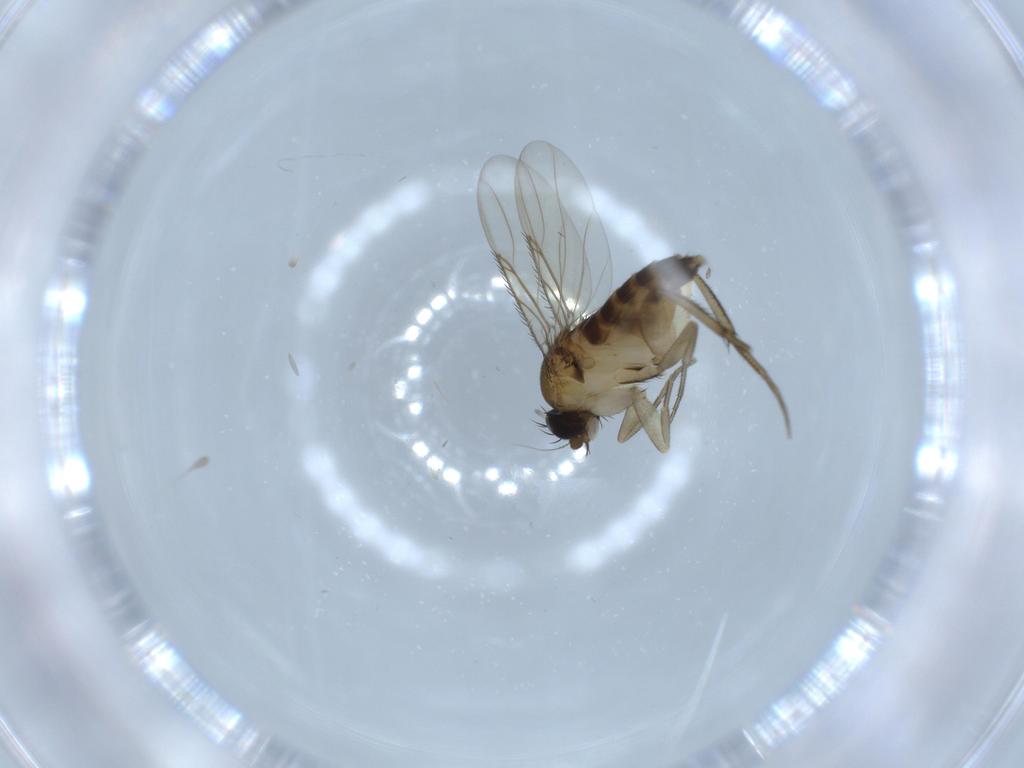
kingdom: Animalia
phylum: Arthropoda
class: Insecta
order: Diptera
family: Phoridae
